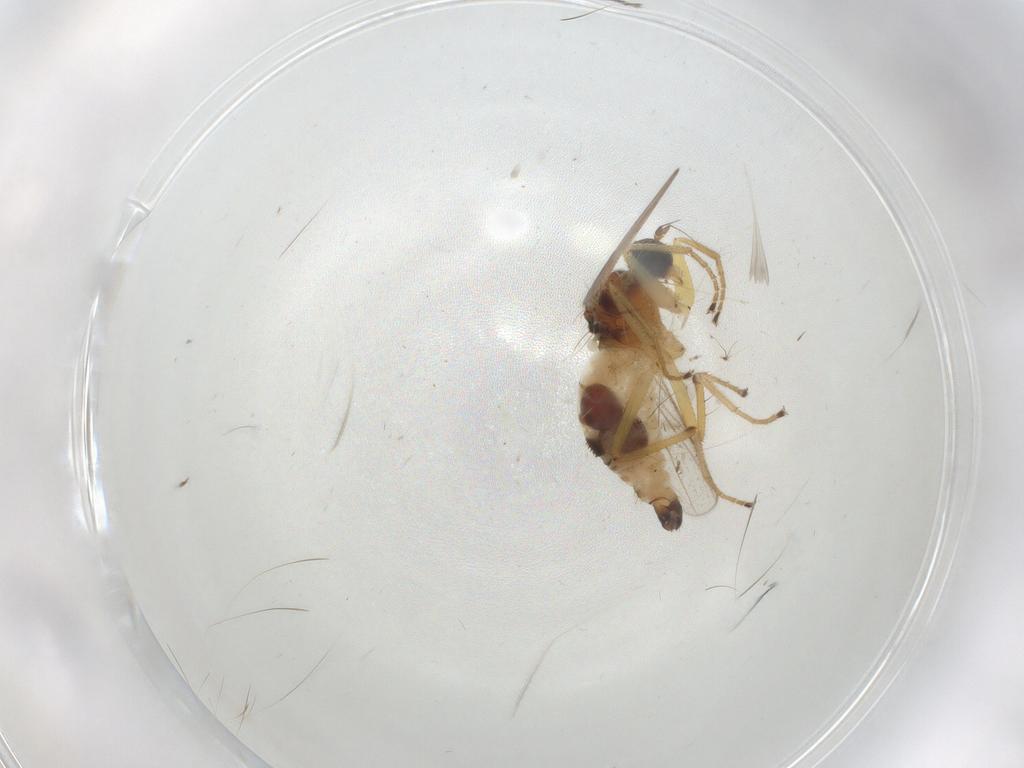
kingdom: Animalia
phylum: Arthropoda
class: Insecta
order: Diptera
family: Hybotidae
